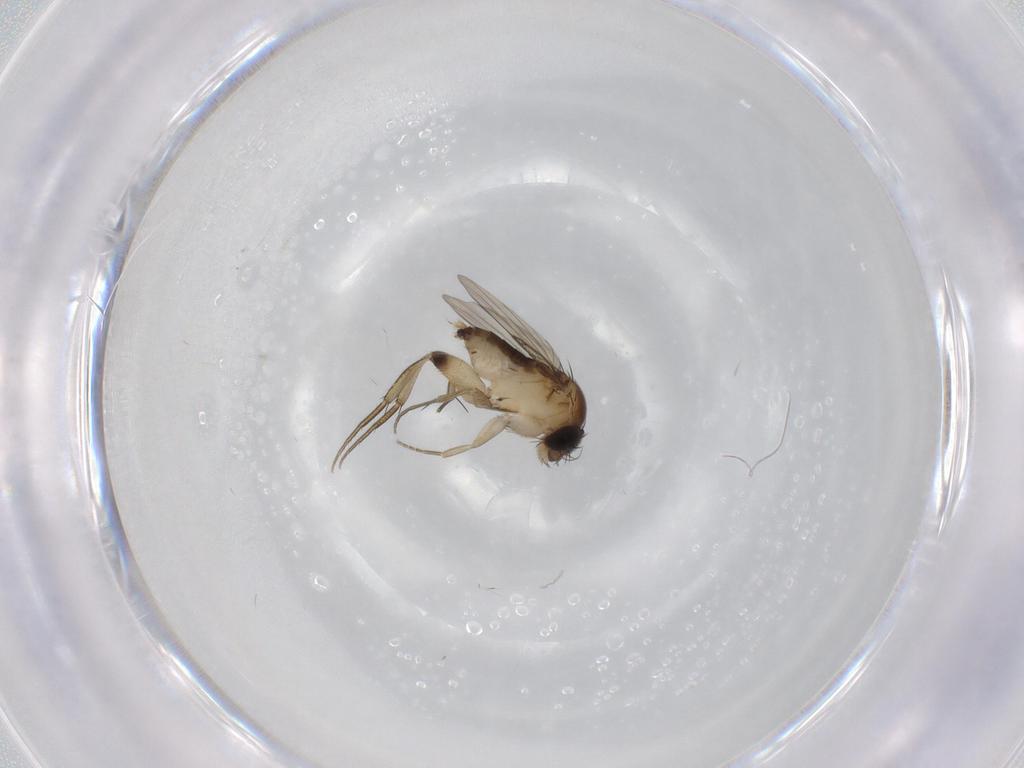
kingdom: Animalia
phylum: Arthropoda
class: Insecta
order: Diptera
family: Phoridae
